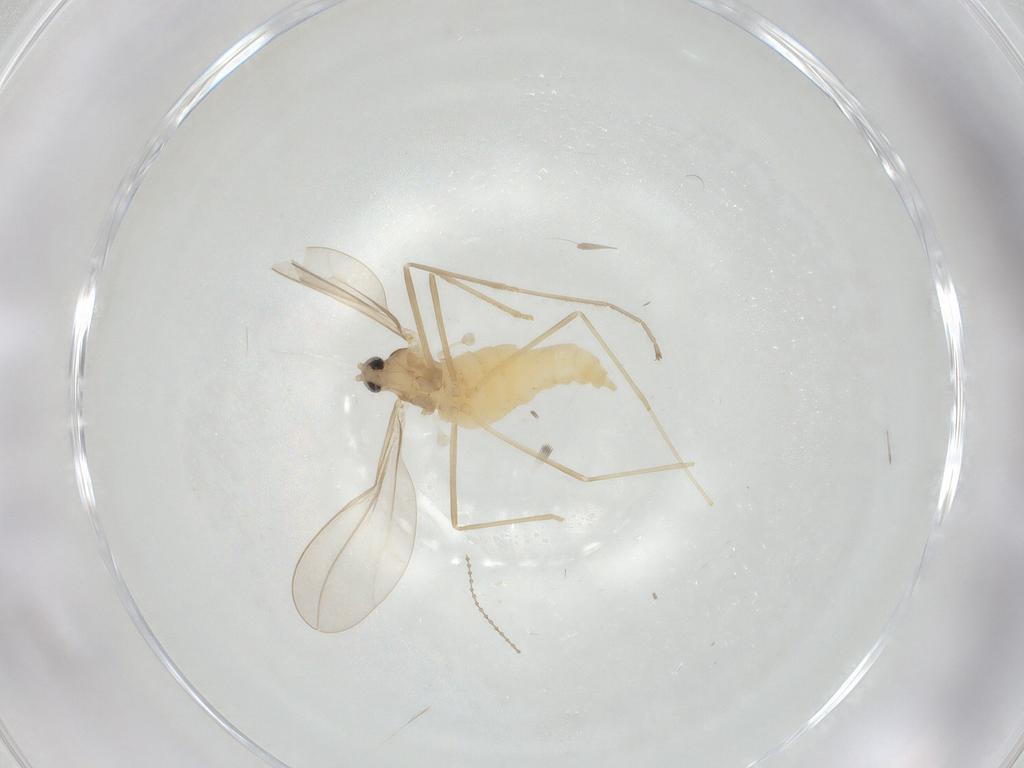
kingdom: Animalia
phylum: Arthropoda
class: Insecta
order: Diptera
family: Cecidomyiidae
